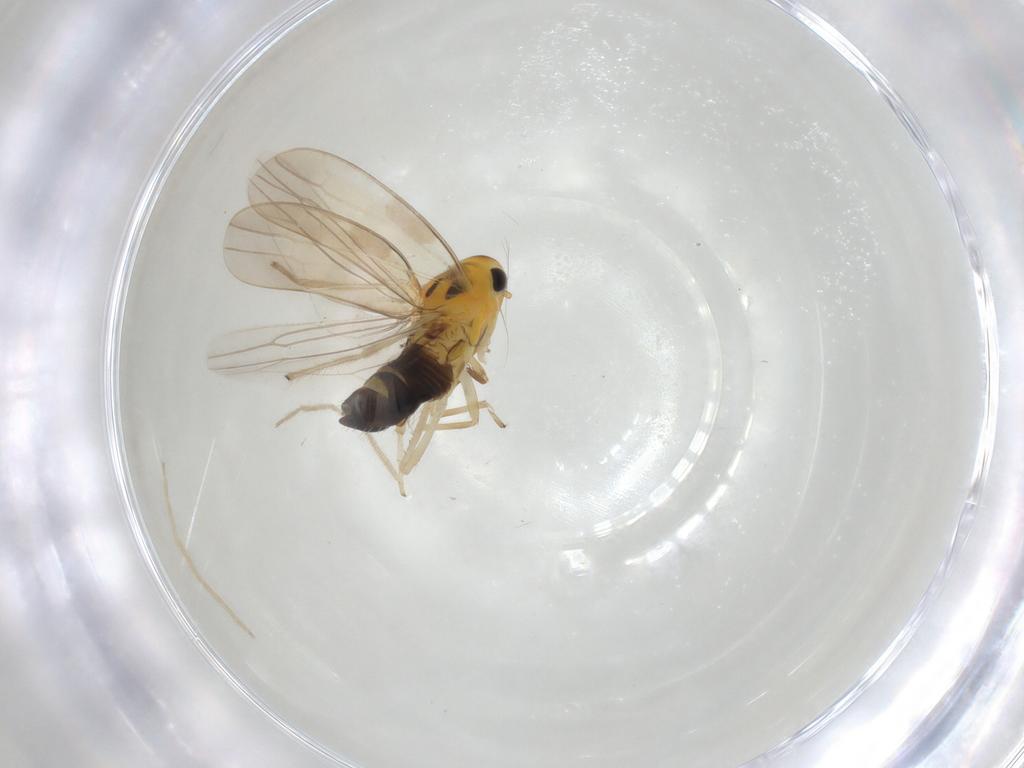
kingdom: Animalia
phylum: Arthropoda
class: Insecta
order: Hemiptera
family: Cicadellidae
